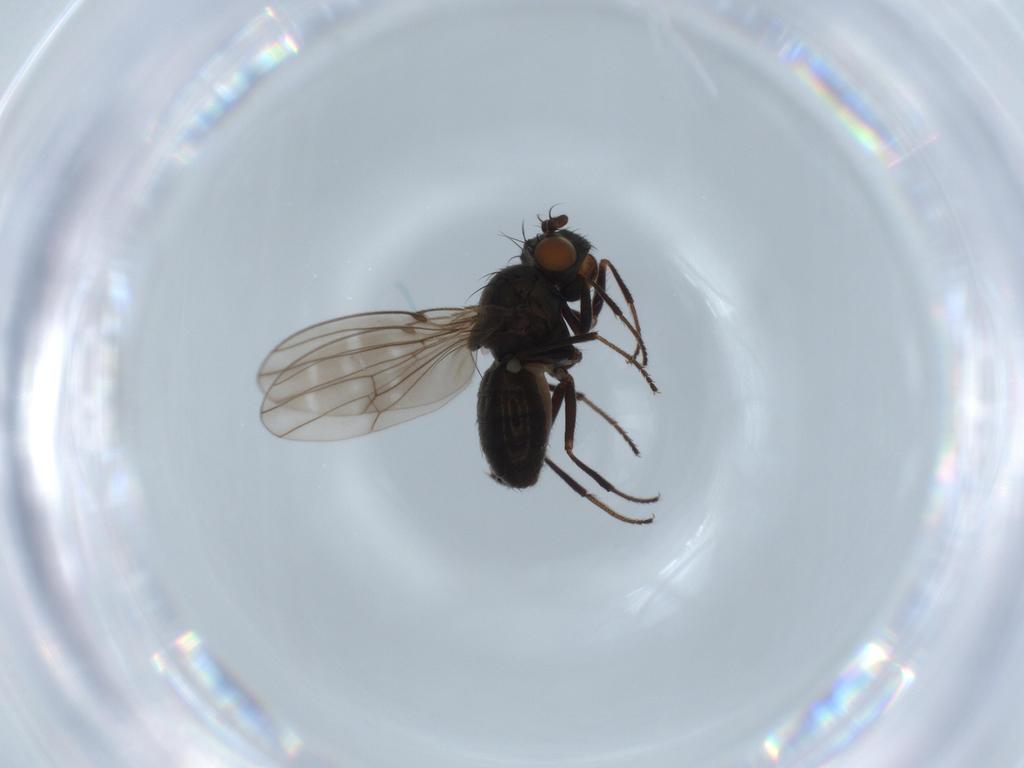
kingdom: Animalia
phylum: Arthropoda
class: Insecta
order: Diptera
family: Ephydridae
